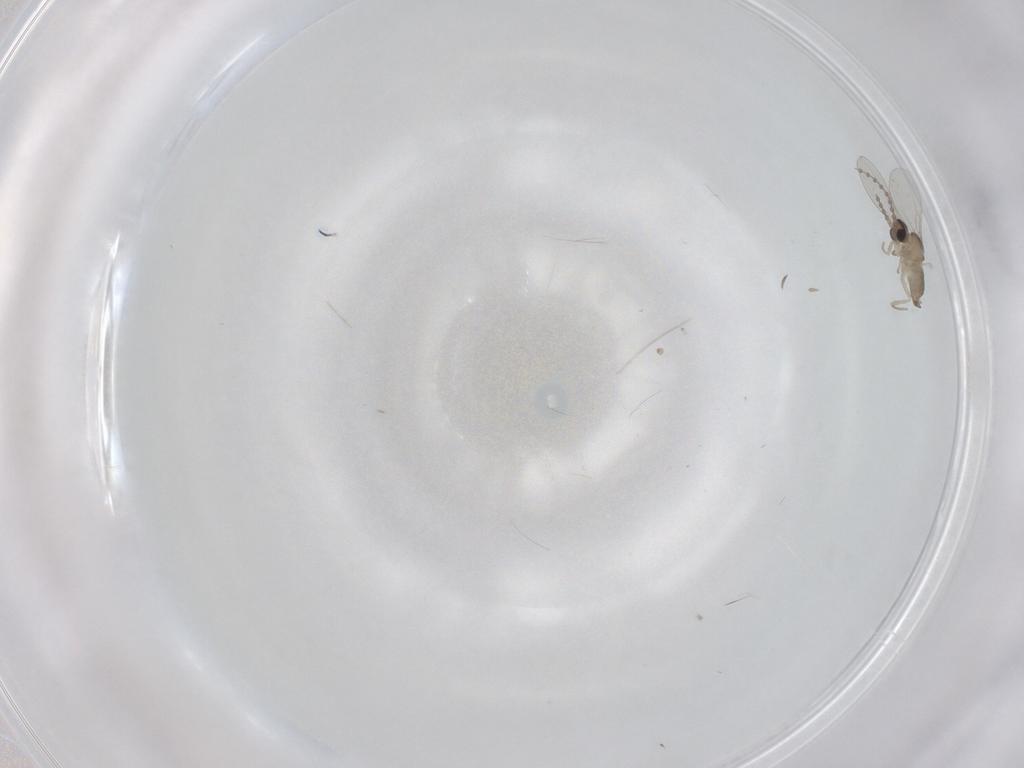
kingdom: Animalia
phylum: Arthropoda
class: Insecta
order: Diptera
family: Cecidomyiidae
